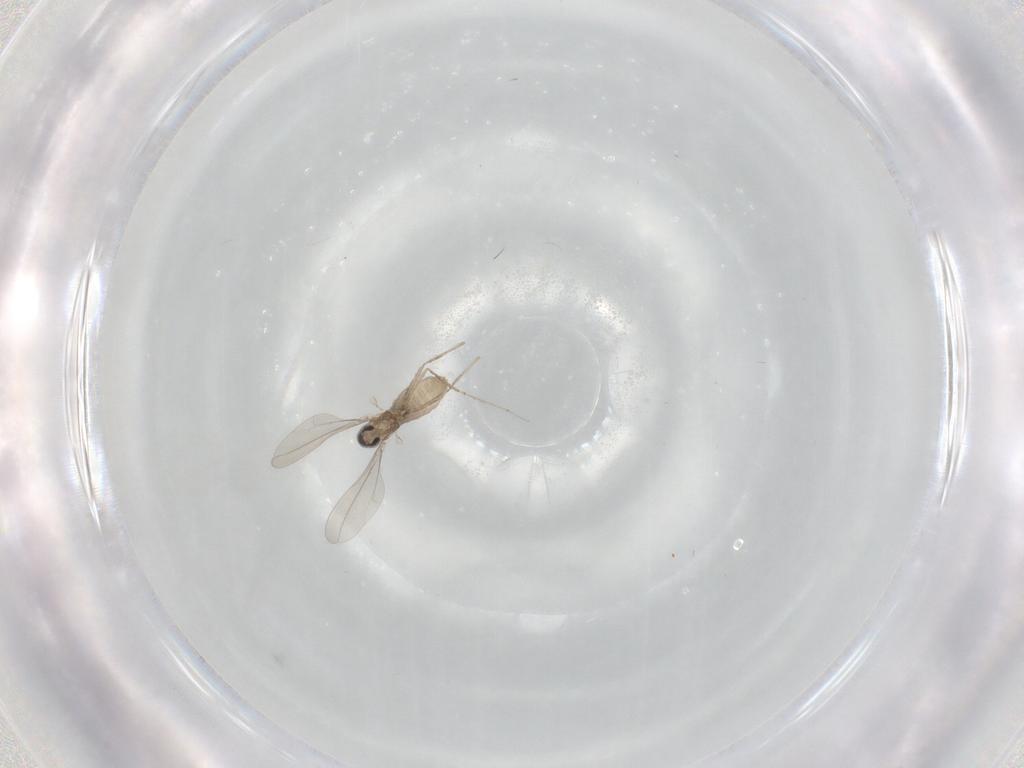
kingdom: Animalia
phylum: Arthropoda
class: Insecta
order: Diptera
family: Cecidomyiidae
